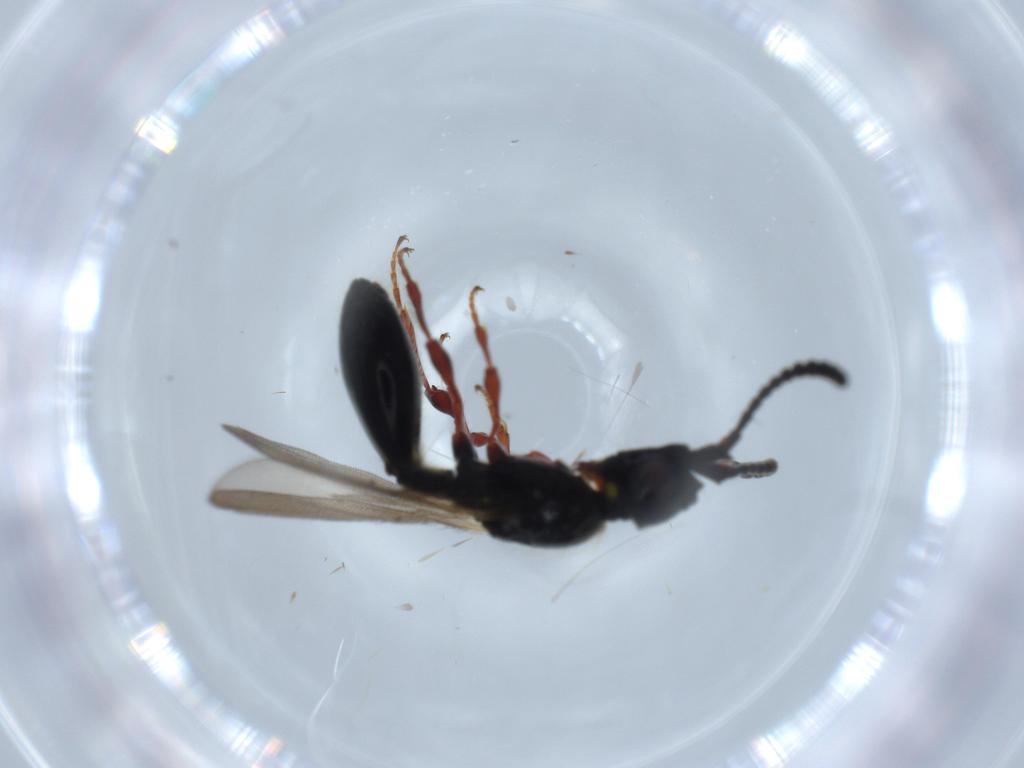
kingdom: Animalia
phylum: Arthropoda
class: Insecta
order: Hymenoptera
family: Diapriidae
